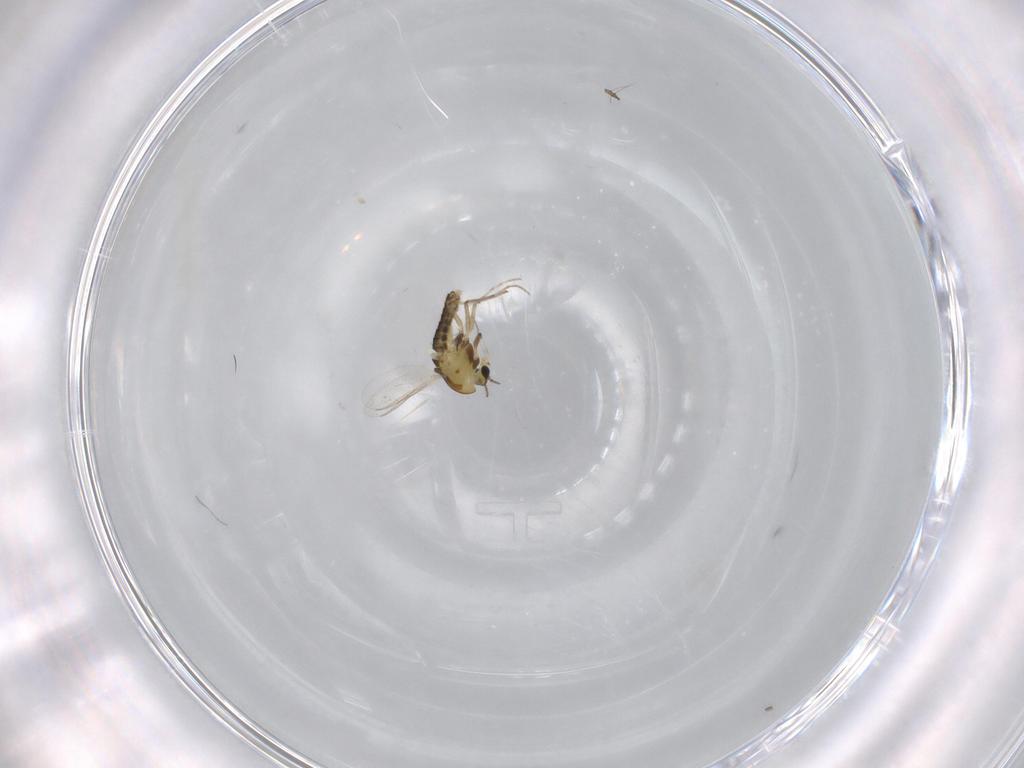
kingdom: Animalia
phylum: Arthropoda
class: Insecta
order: Diptera
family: Chironomidae
